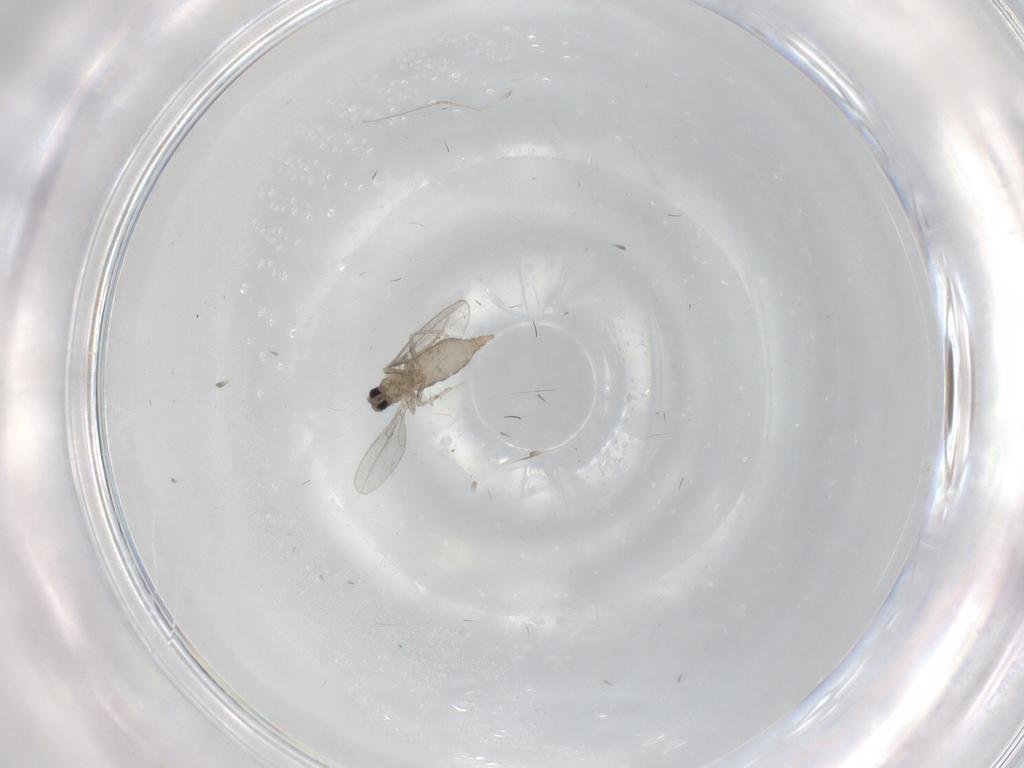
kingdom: Animalia
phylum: Arthropoda
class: Insecta
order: Diptera
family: Cecidomyiidae
